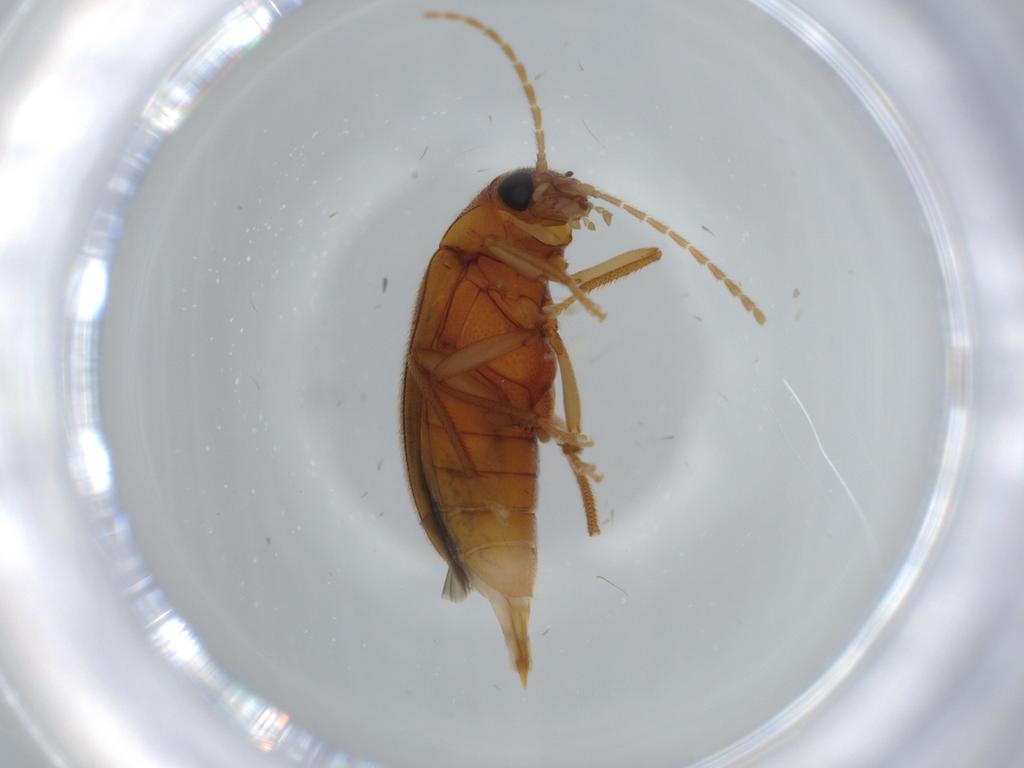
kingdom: Animalia
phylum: Arthropoda
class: Insecta
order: Coleoptera
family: Ptilodactylidae
